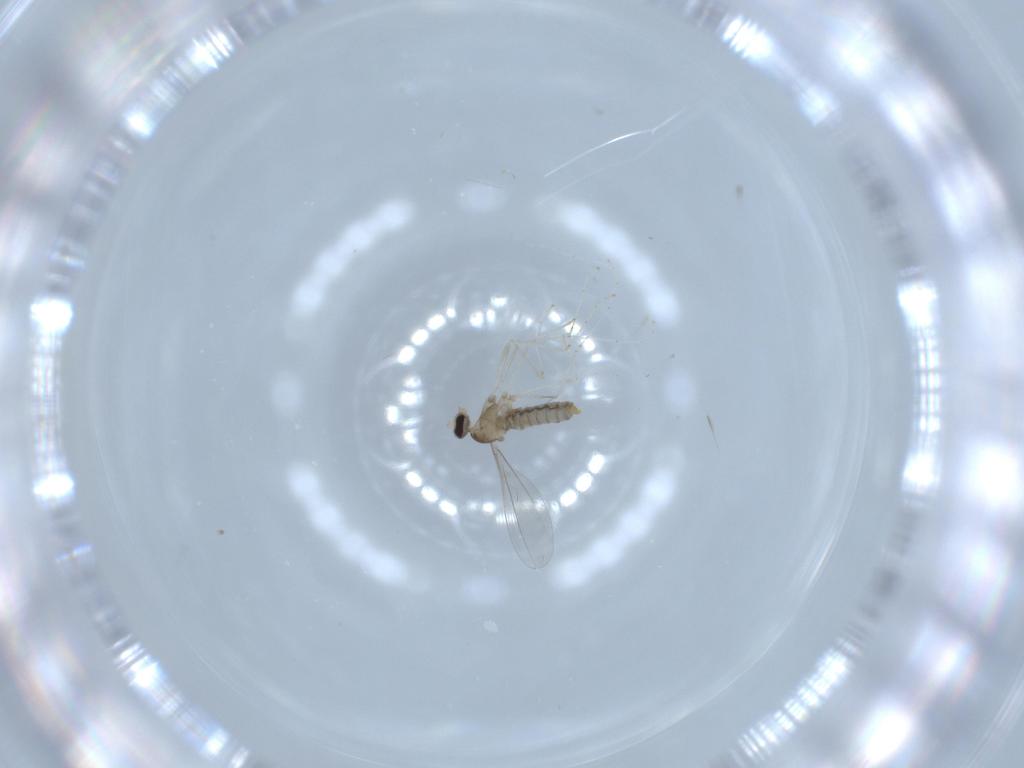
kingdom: Animalia
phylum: Arthropoda
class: Insecta
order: Diptera
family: Cecidomyiidae
